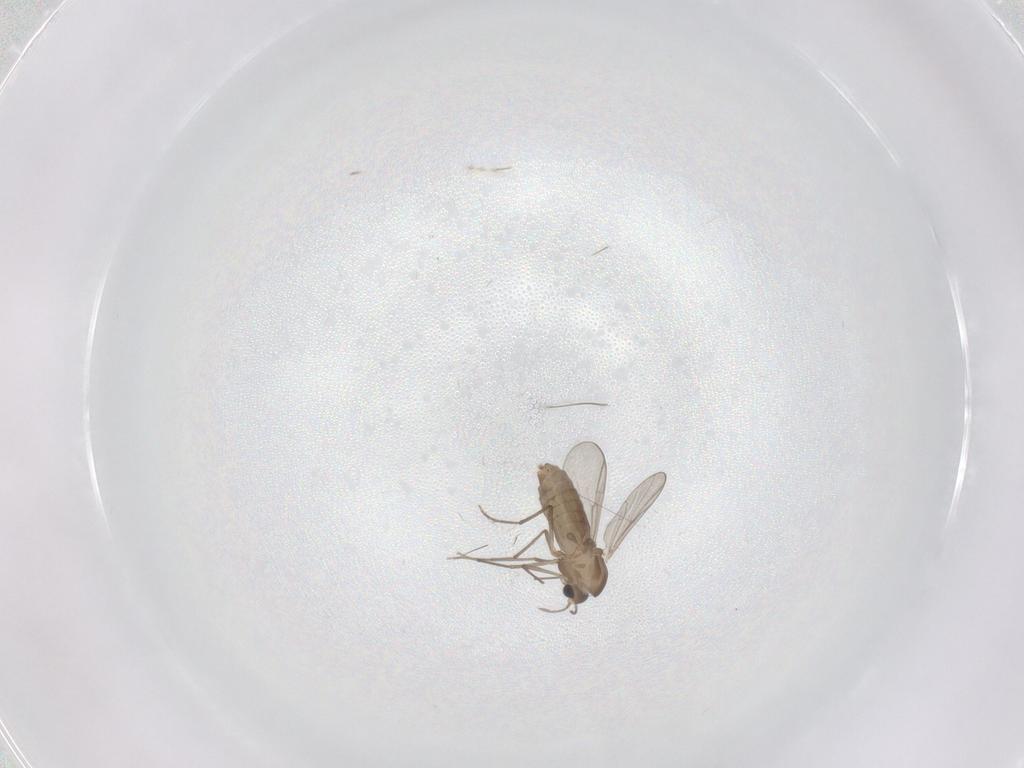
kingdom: Animalia
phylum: Arthropoda
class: Insecta
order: Diptera
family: Chironomidae
